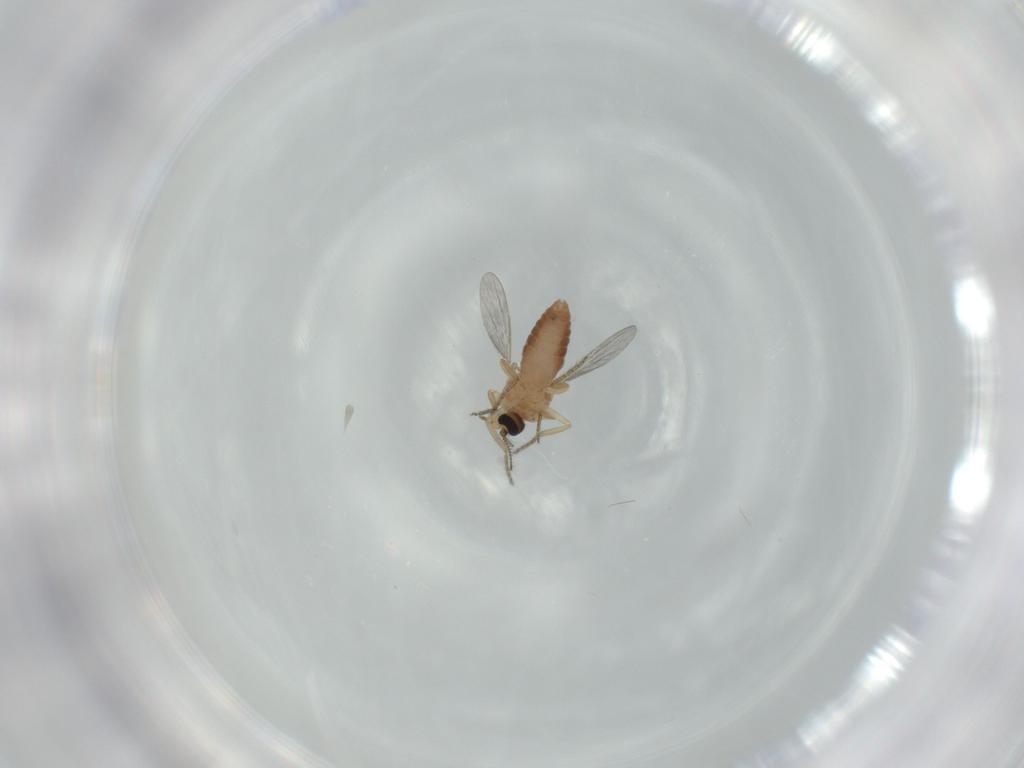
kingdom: Animalia
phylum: Arthropoda
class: Insecta
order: Diptera
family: Ceratopogonidae
